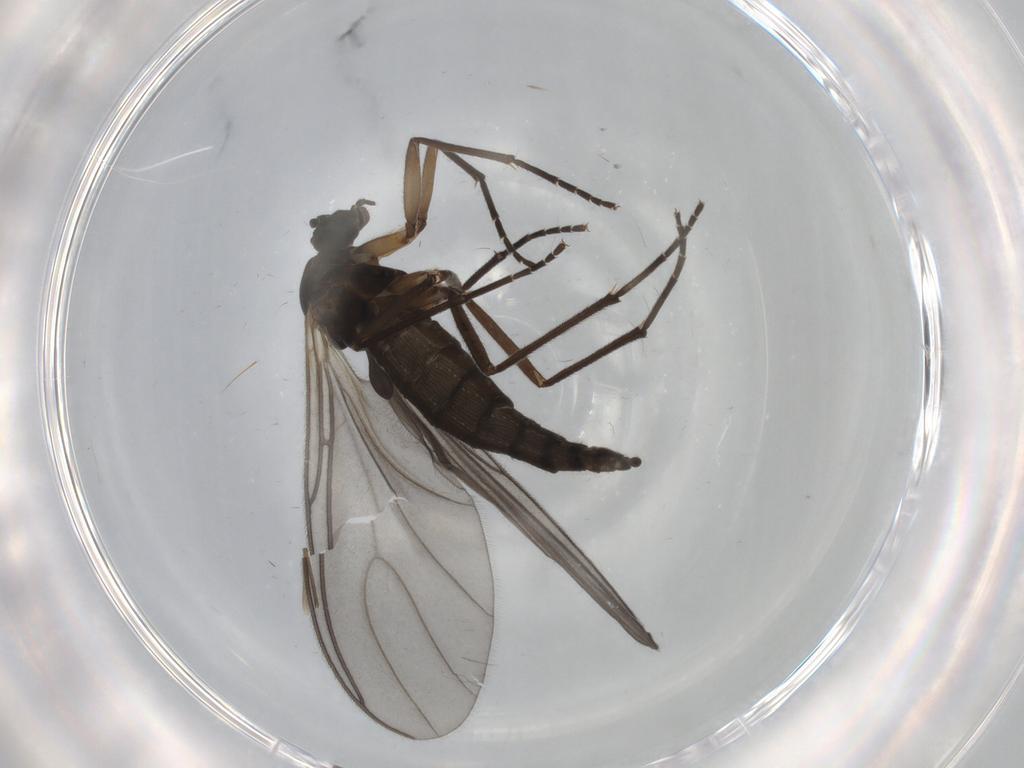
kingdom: Animalia
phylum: Arthropoda
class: Insecta
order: Diptera
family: Sciaridae
